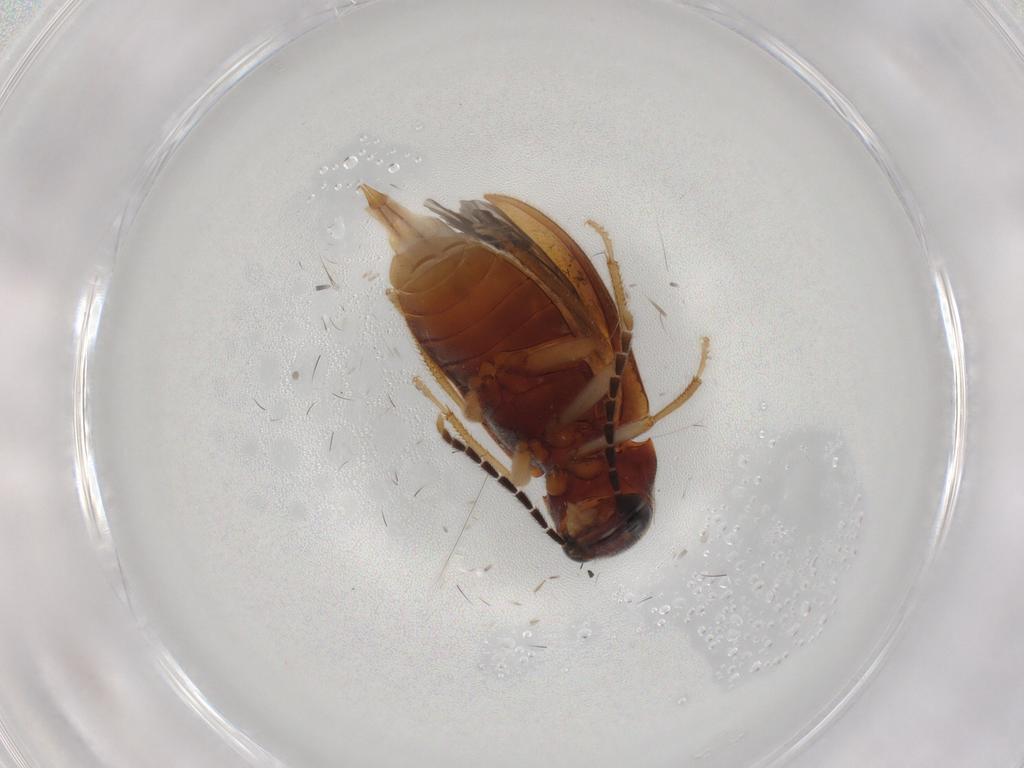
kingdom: Animalia
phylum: Arthropoda
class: Insecta
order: Coleoptera
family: Ptilodactylidae
